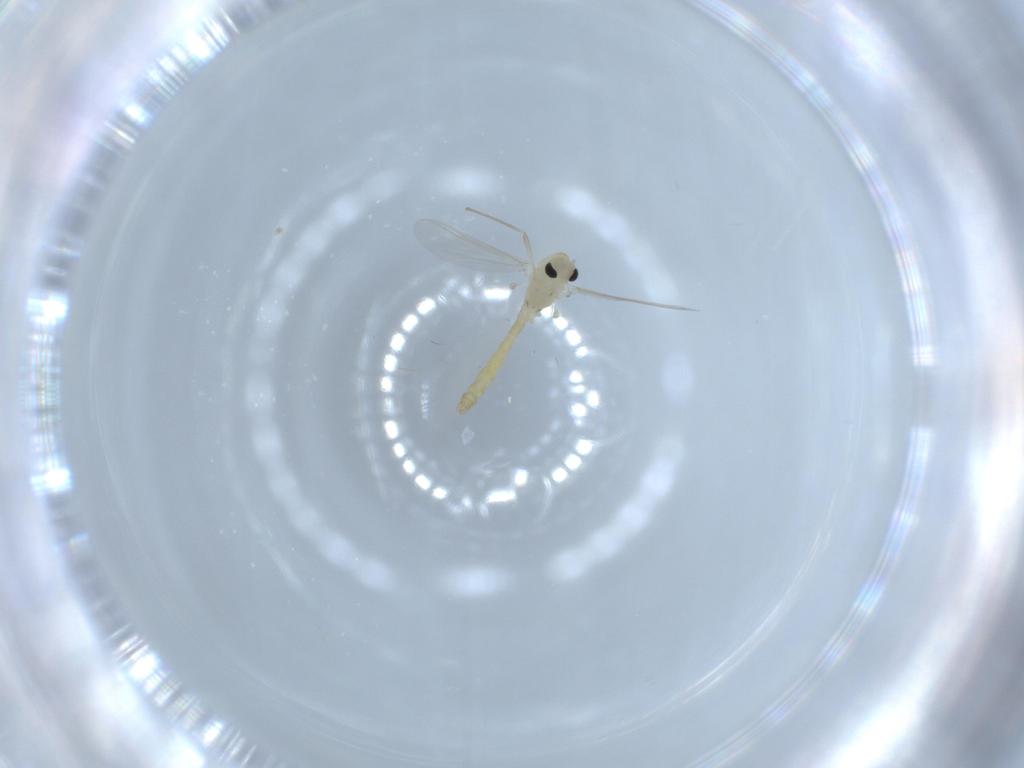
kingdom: Animalia
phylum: Arthropoda
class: Insecta
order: Diptera
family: Chironomidae
